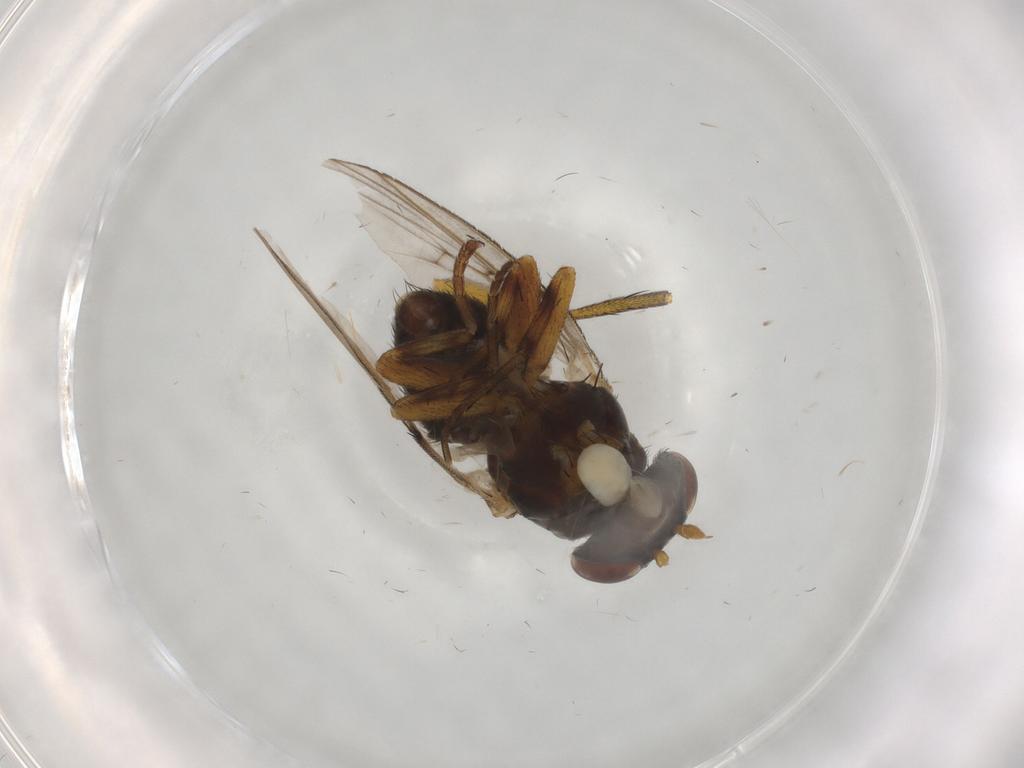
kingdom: Animalia
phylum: Arthropoda
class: Insecta
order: Diptera
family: Odiniidae
